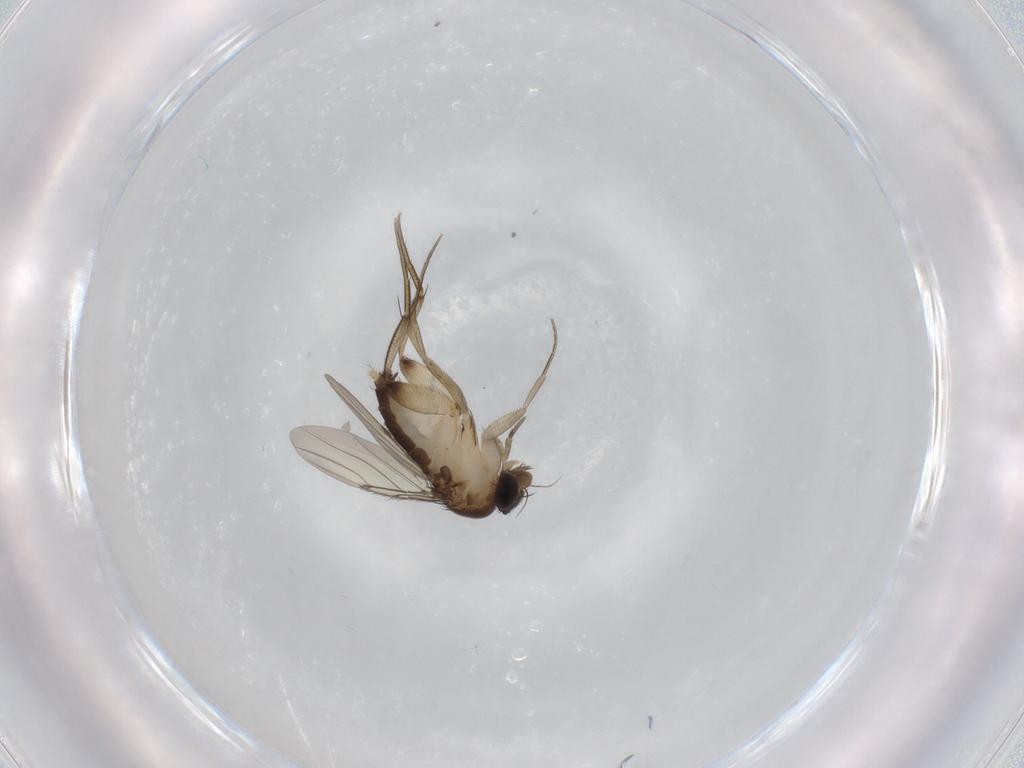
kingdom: Animalia
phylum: Arthropoda
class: Insecta
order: Diptera
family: Phoridae
